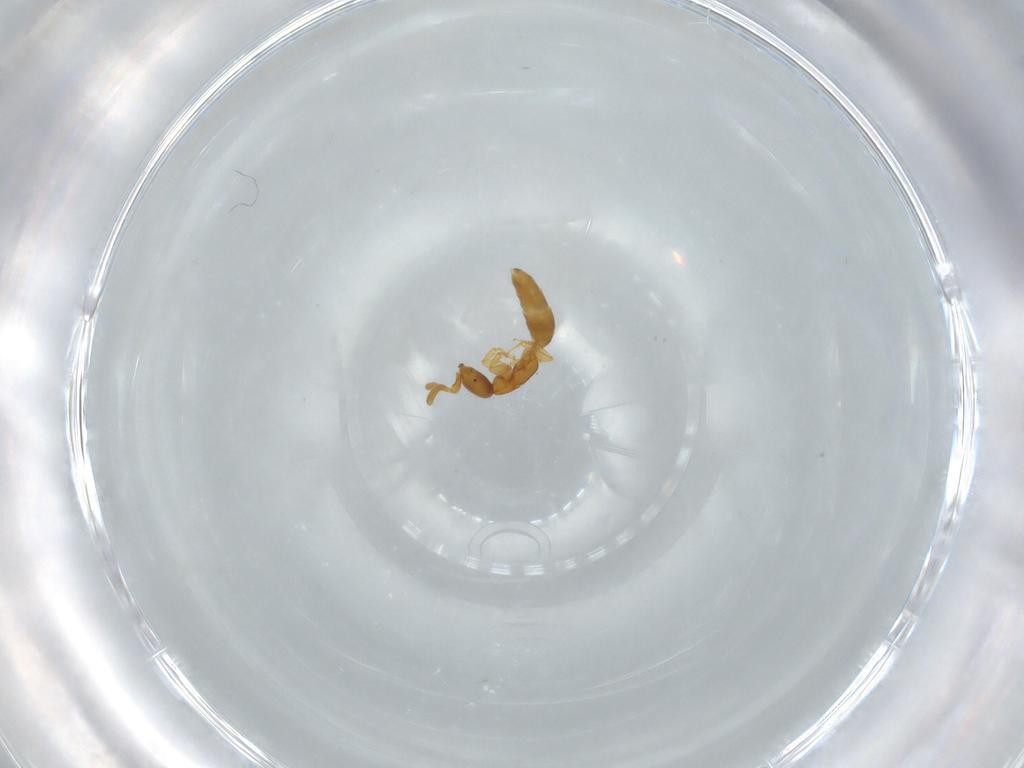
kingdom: Animalia
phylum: Arthropoda
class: Insecta
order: Hymenoptera
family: Bethylidae
